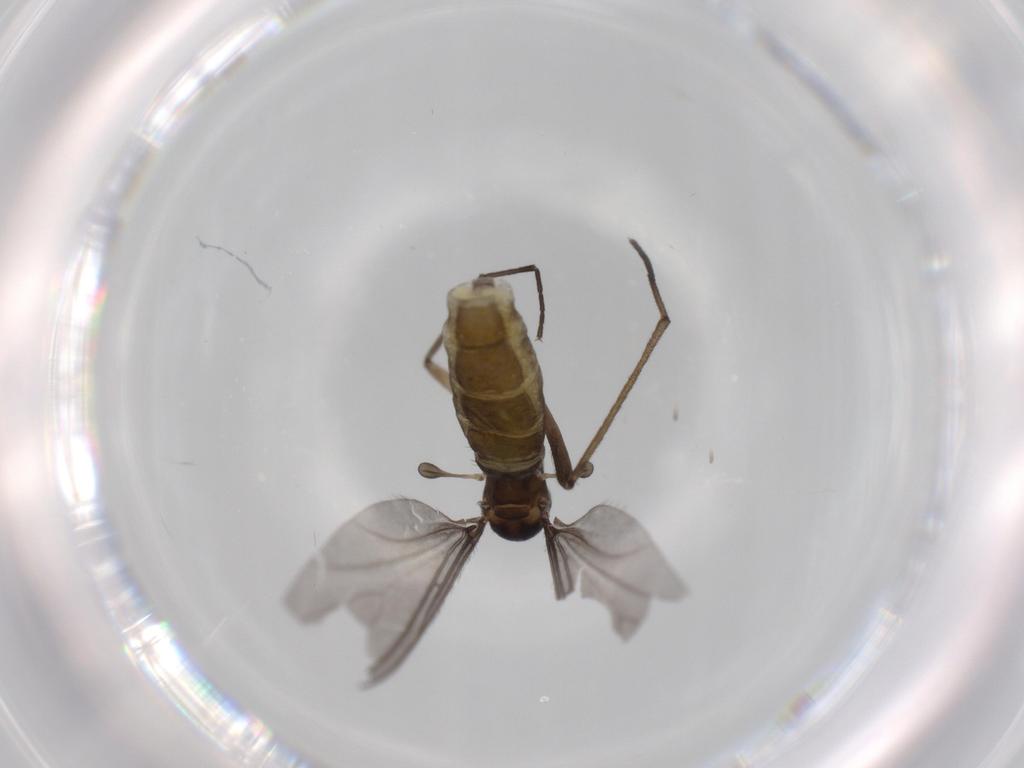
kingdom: Animalia
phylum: Arthropoda
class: Insecta
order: Diptera
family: Sciaridae
